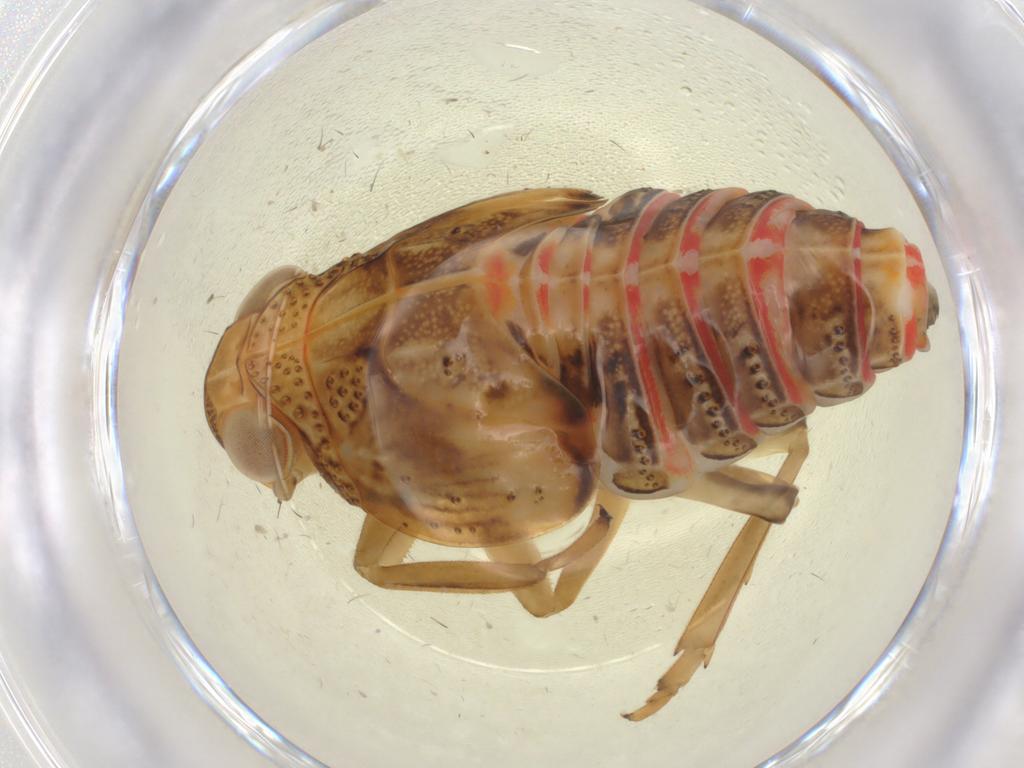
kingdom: Animalia
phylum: Arthropoda
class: Insecta
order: Hemiptera
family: Issidae
